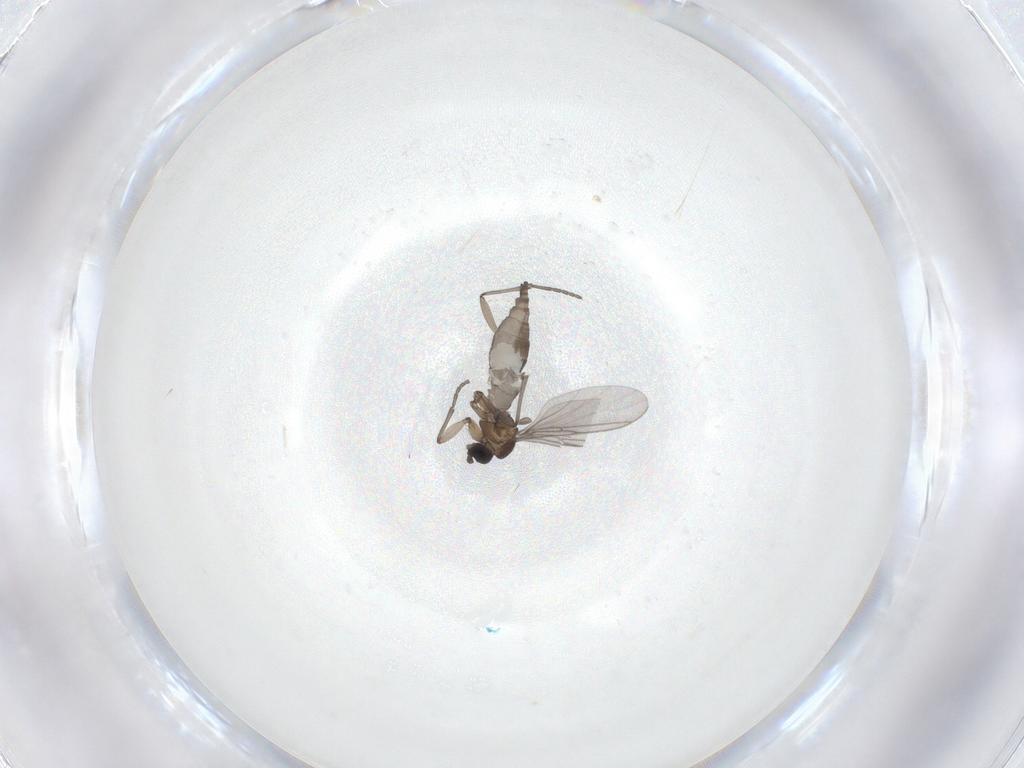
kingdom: Animalia
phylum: Arthropoda
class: Insecta
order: Diptera
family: Sciaridae
